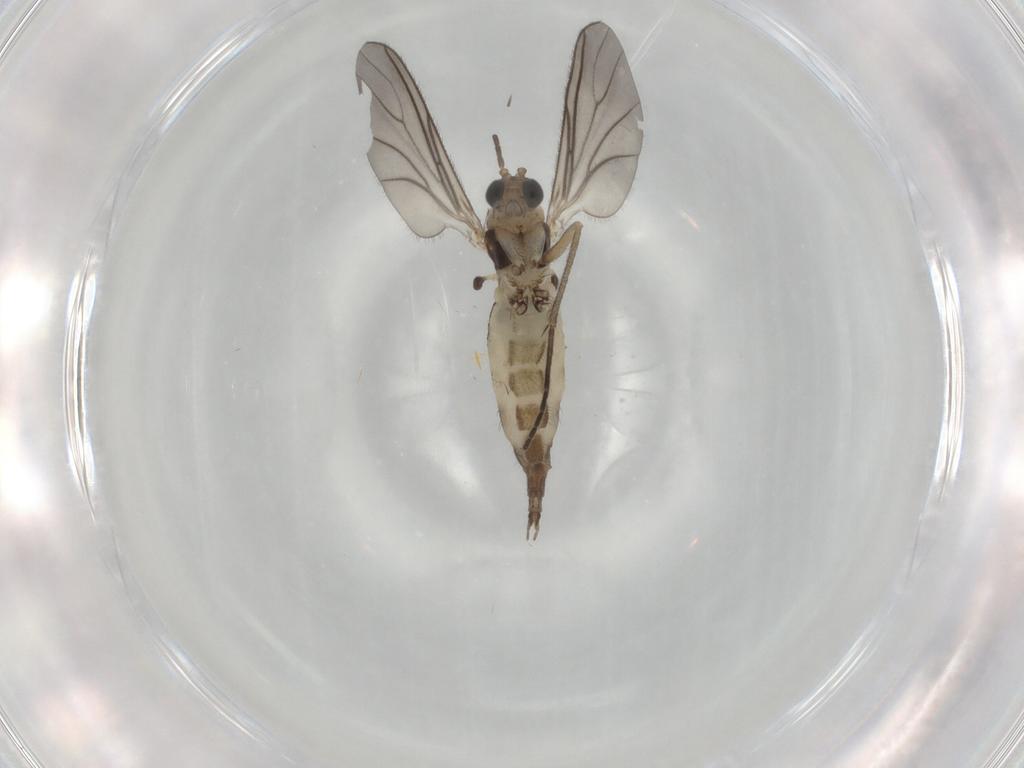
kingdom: Animalia
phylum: Arthropoda
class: Insecta
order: Diptera
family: Sciaridae
